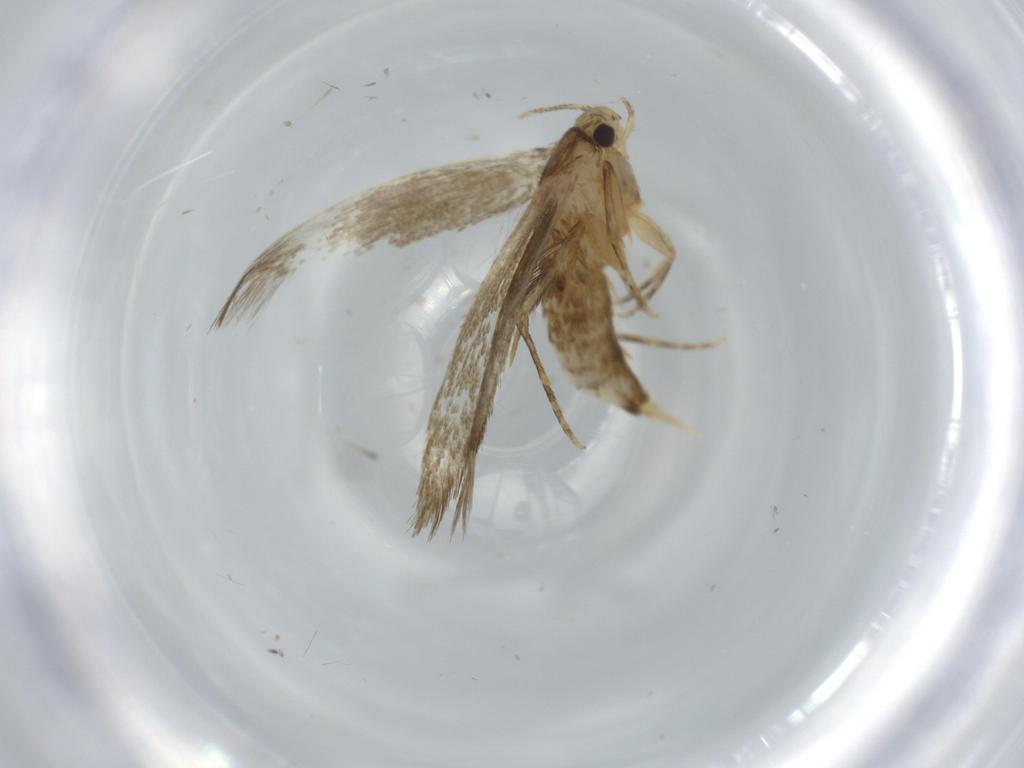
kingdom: Animalia
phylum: Arthropoda
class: Insecta
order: Lepidoptera
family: Tineidae
